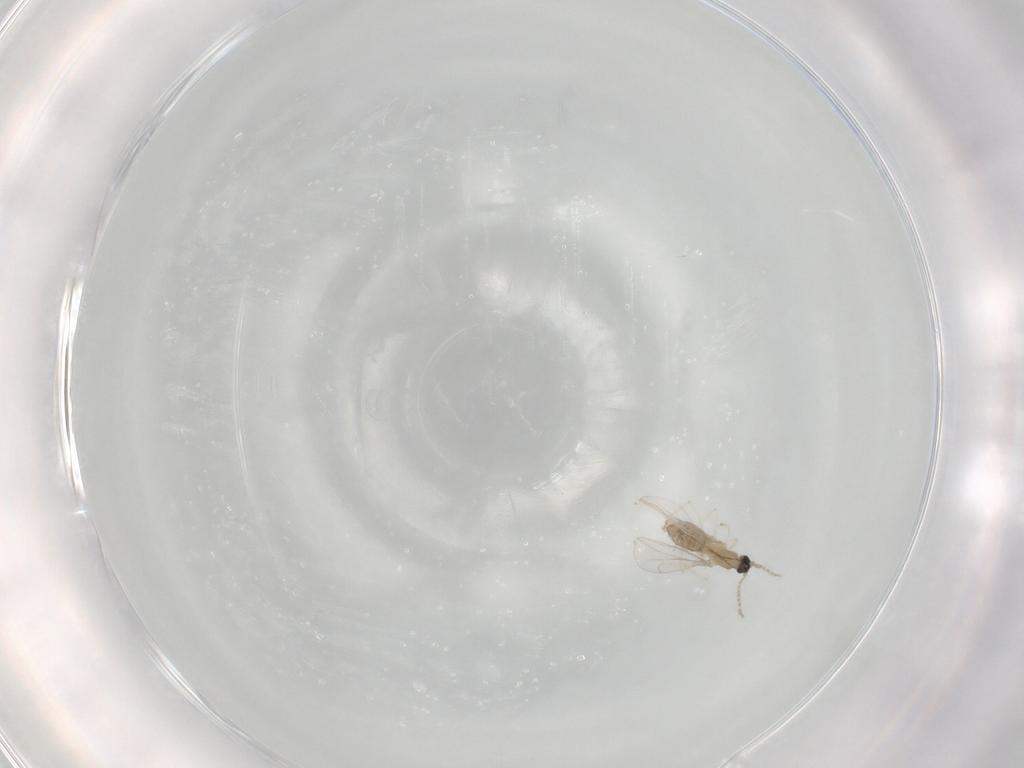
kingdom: Animalia
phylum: Arthropoda
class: Insecta
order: Diptera
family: Cecidomyiidae
